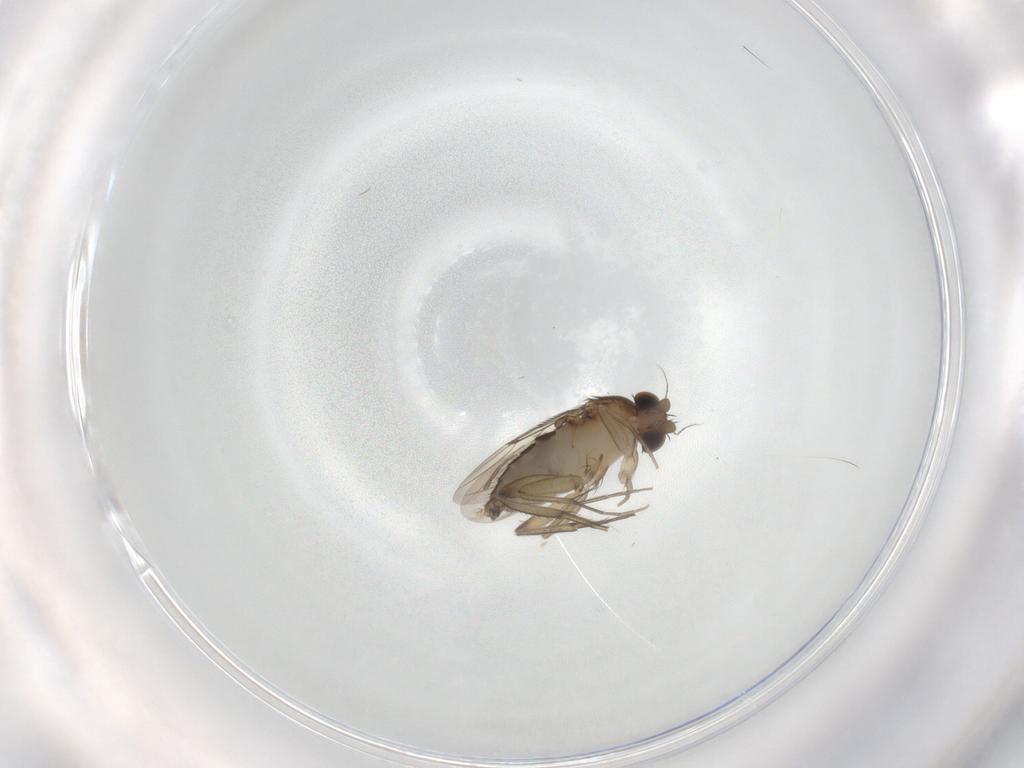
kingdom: Animalia
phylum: Arthropoda
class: Insecta
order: Diptera
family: Phoridae
